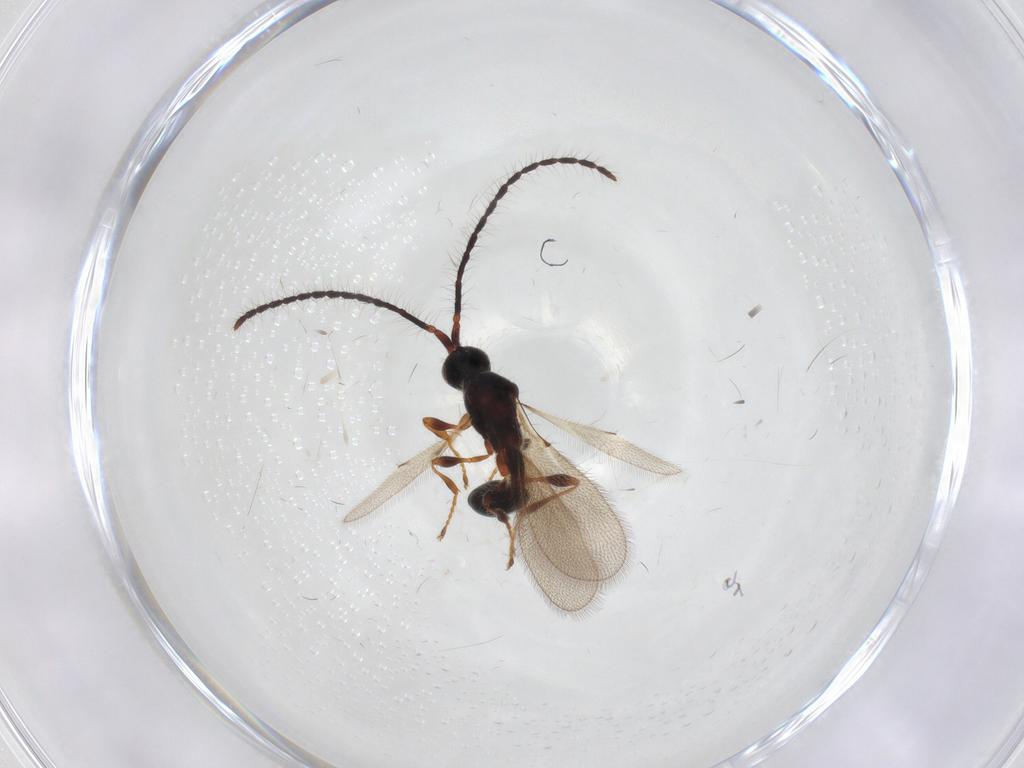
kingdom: Animalia
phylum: Arthropoda
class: Insecta
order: Hymenoptera
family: Diapriidae
